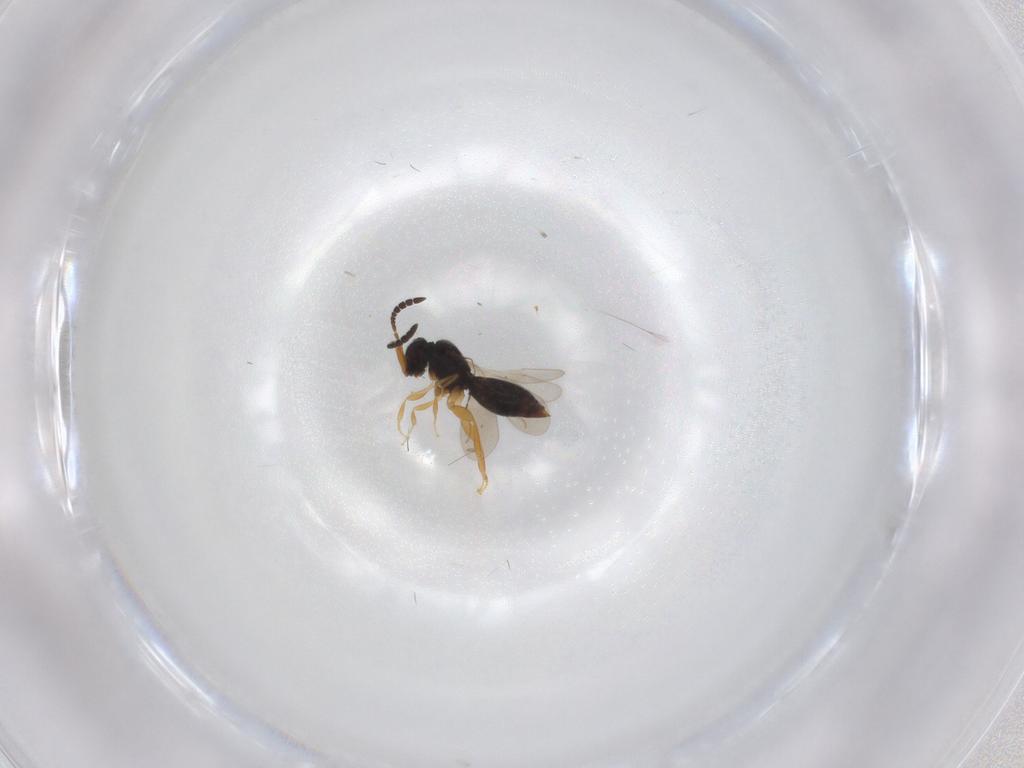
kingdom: Animalia
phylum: Arthropoda
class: Insecta
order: Hymenoptera
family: Ceraphronidae
